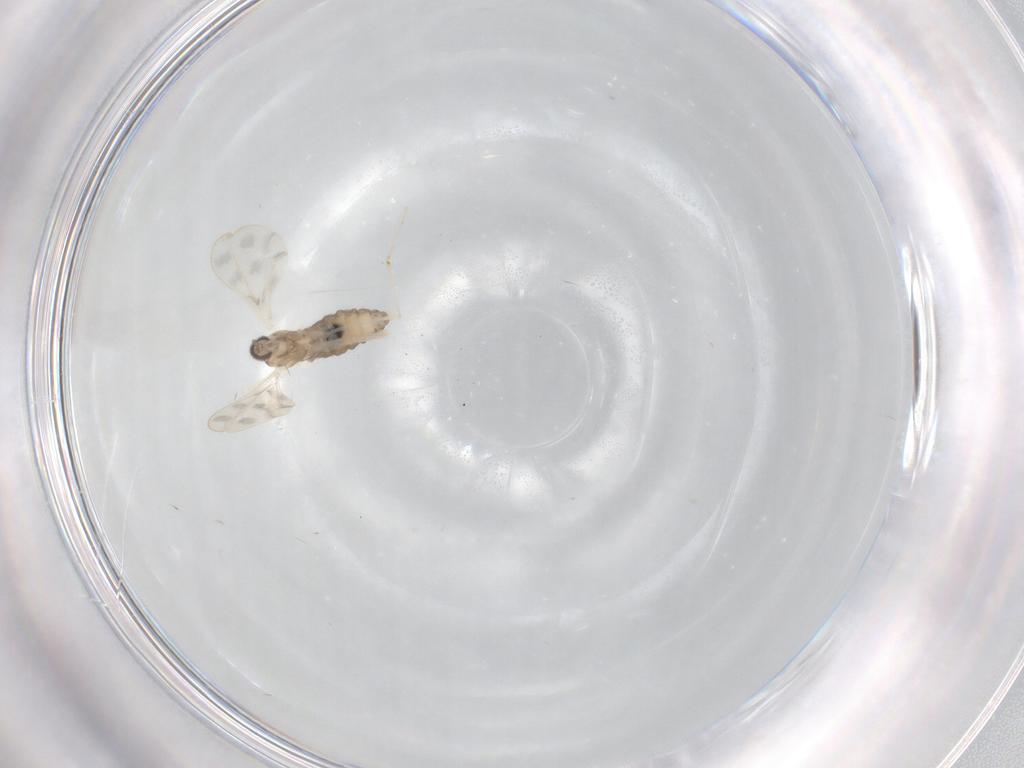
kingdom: Animalia
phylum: Arthropoda
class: Insecta
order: Diptera
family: Cecidomyiidae
